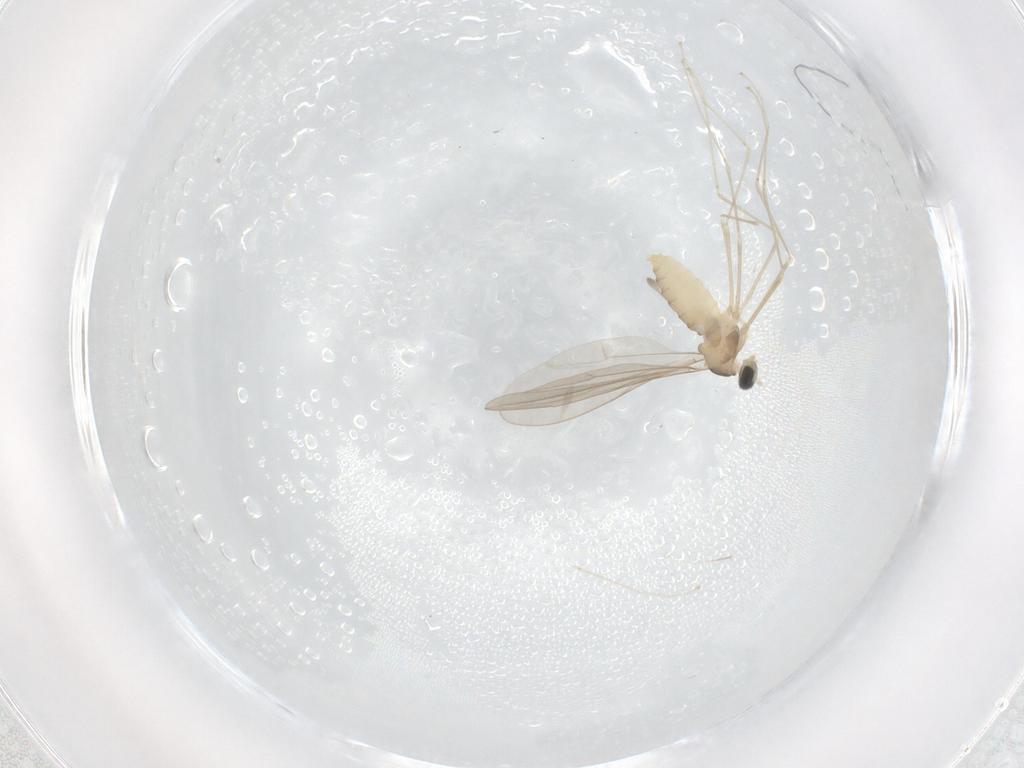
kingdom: Animalia
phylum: Arthropoda
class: Insecta
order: Diptera
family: Cecidomyiidae
